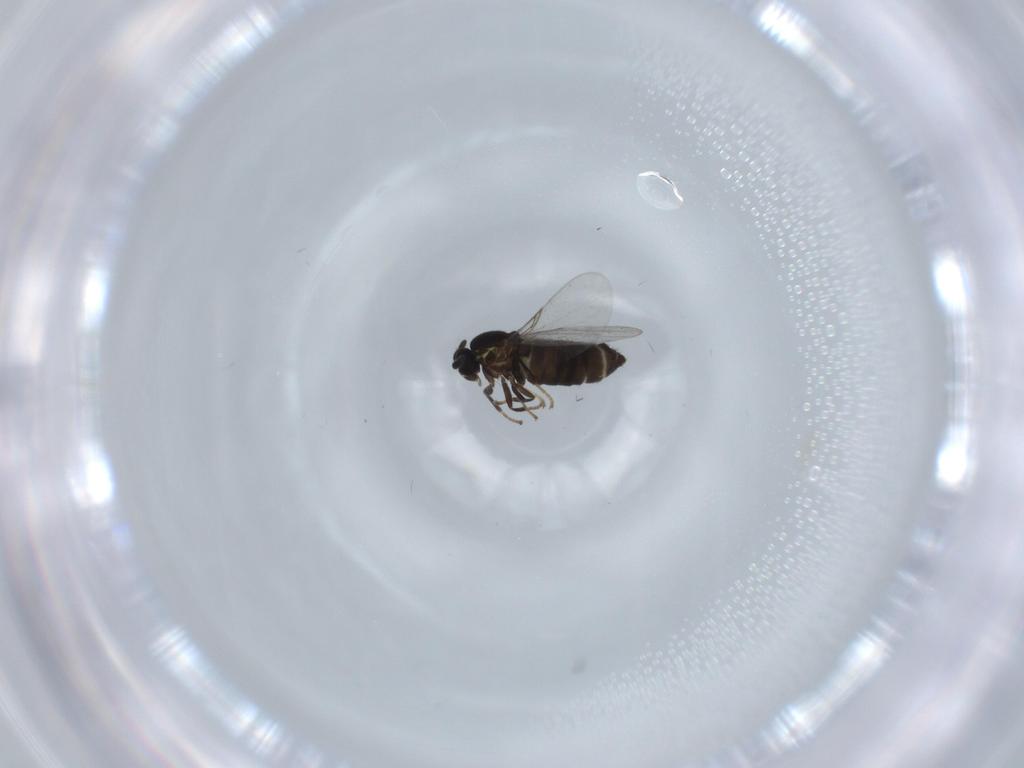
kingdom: Animalia
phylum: Arthropoda
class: Insecta
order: Diptera
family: Scatopsidae
